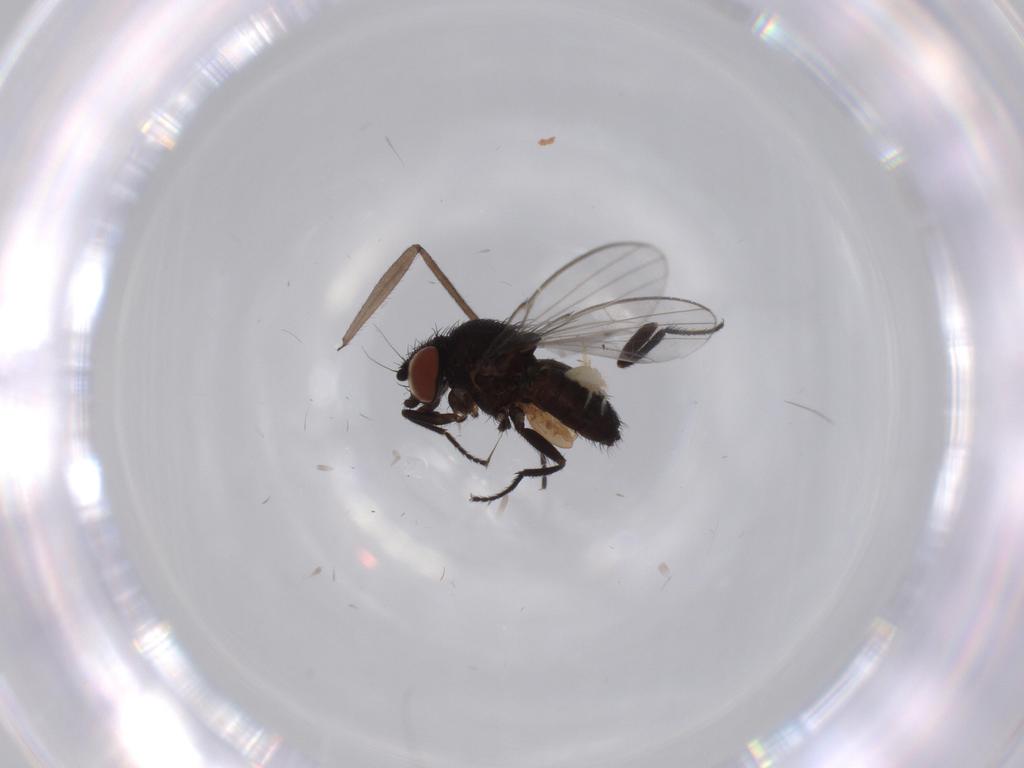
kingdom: Animalia
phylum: Arthropoda
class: Insecta
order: Diptera
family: Milichiidae
